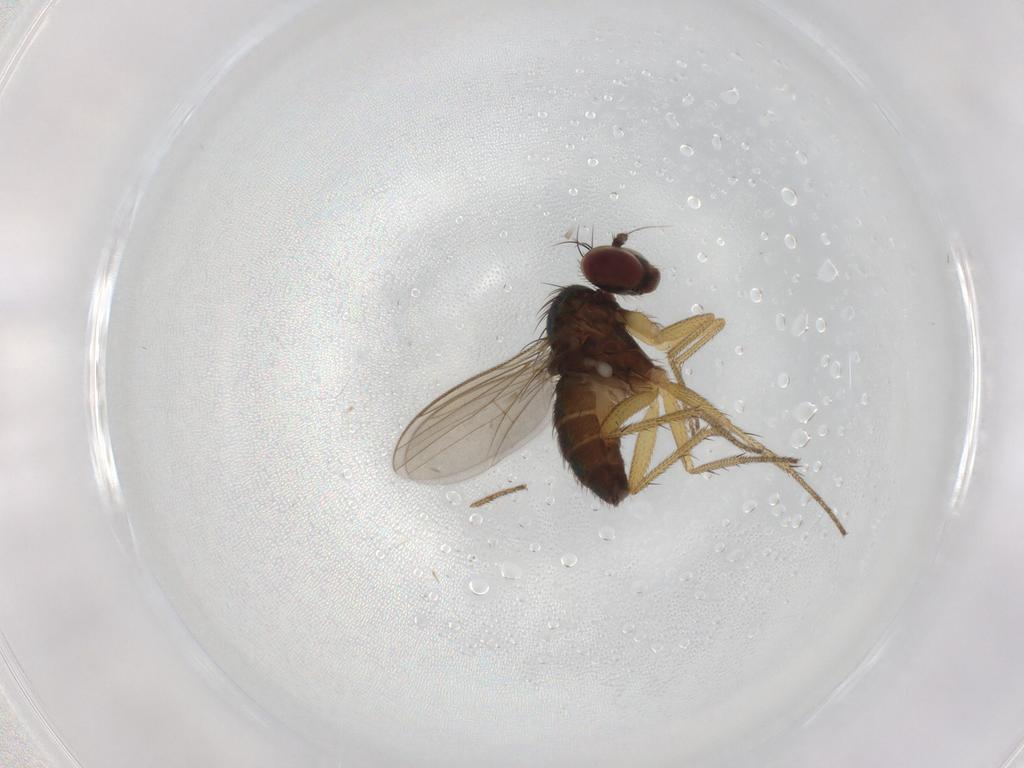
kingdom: Animalia
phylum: Arthropoda
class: Insecta
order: Diptera
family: Dolichopodidae
